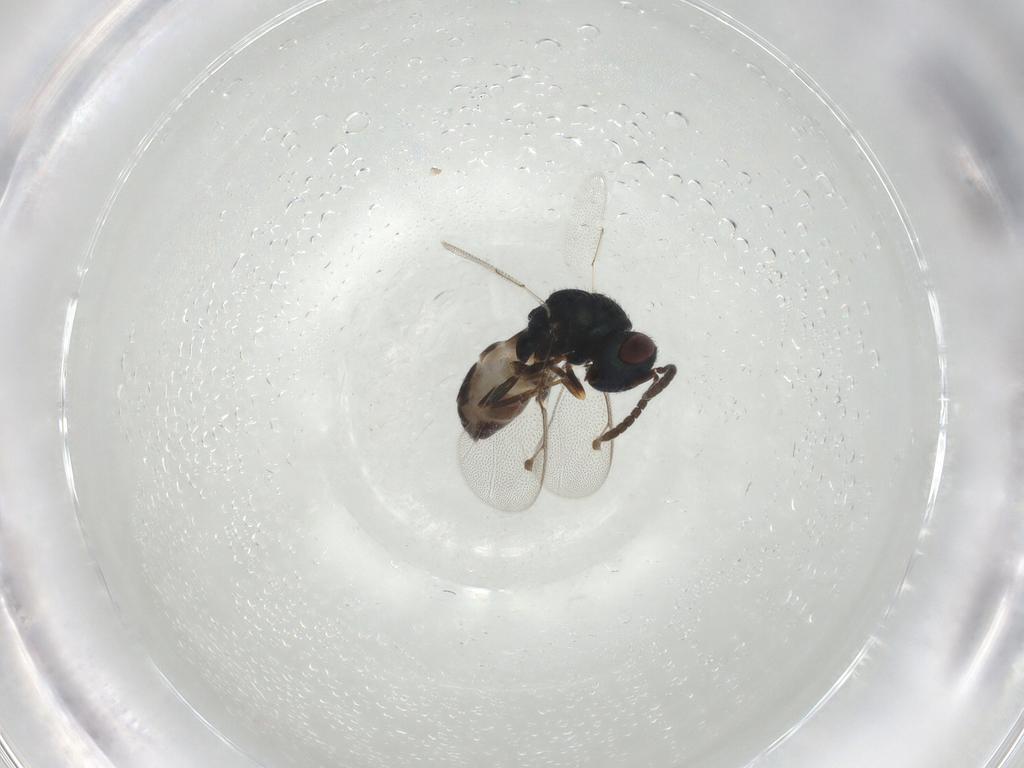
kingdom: Animalia
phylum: Arthropoda
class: Insecta
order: Hymenoptera
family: Pteromalidae
